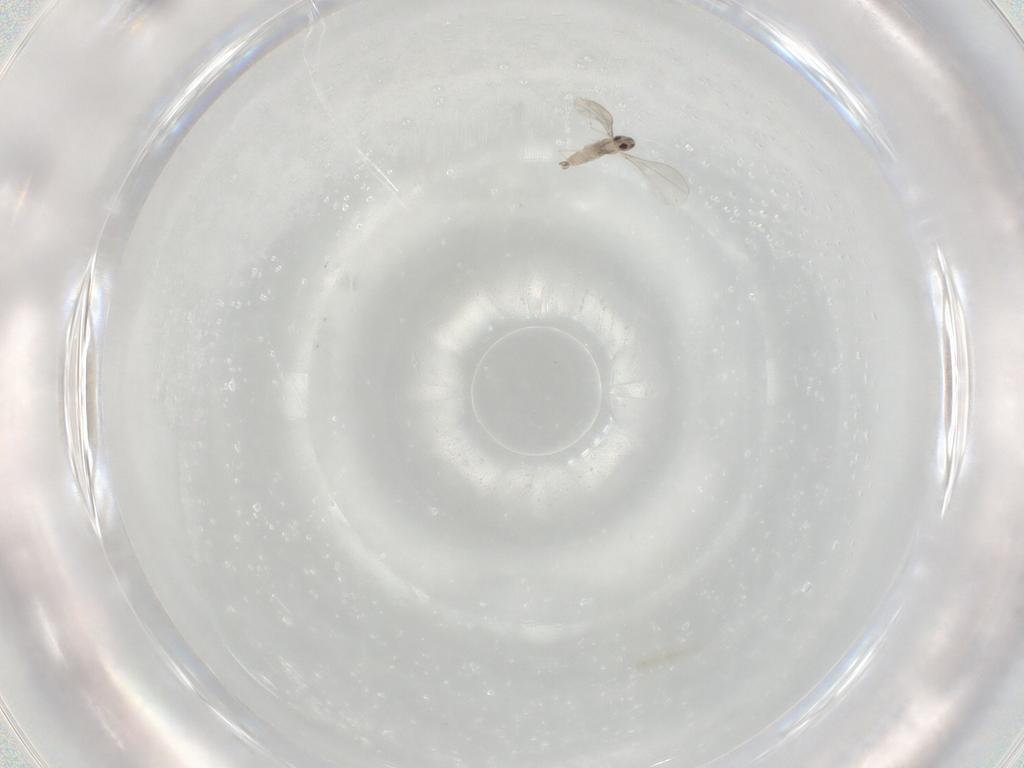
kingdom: Animalia
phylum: Arthropoda
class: Insecta
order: Diptera
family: Cecidomyiidae
